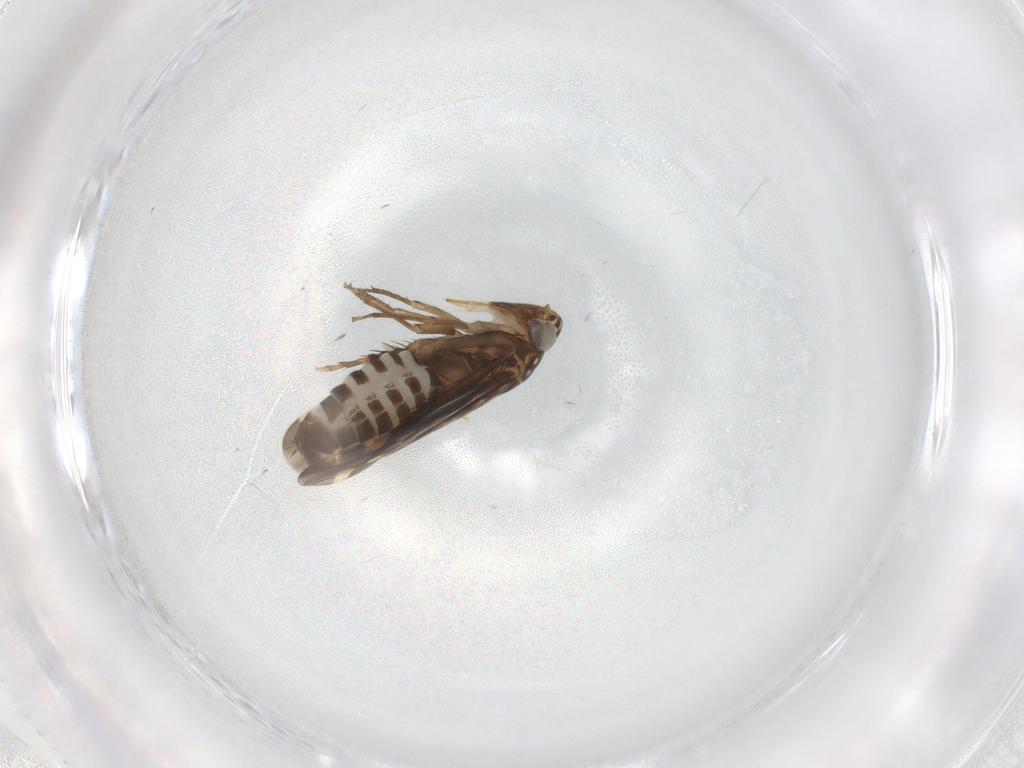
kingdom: Animalia
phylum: Arthropoda
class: Insecta
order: Hemiptera
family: Cicadellidae
